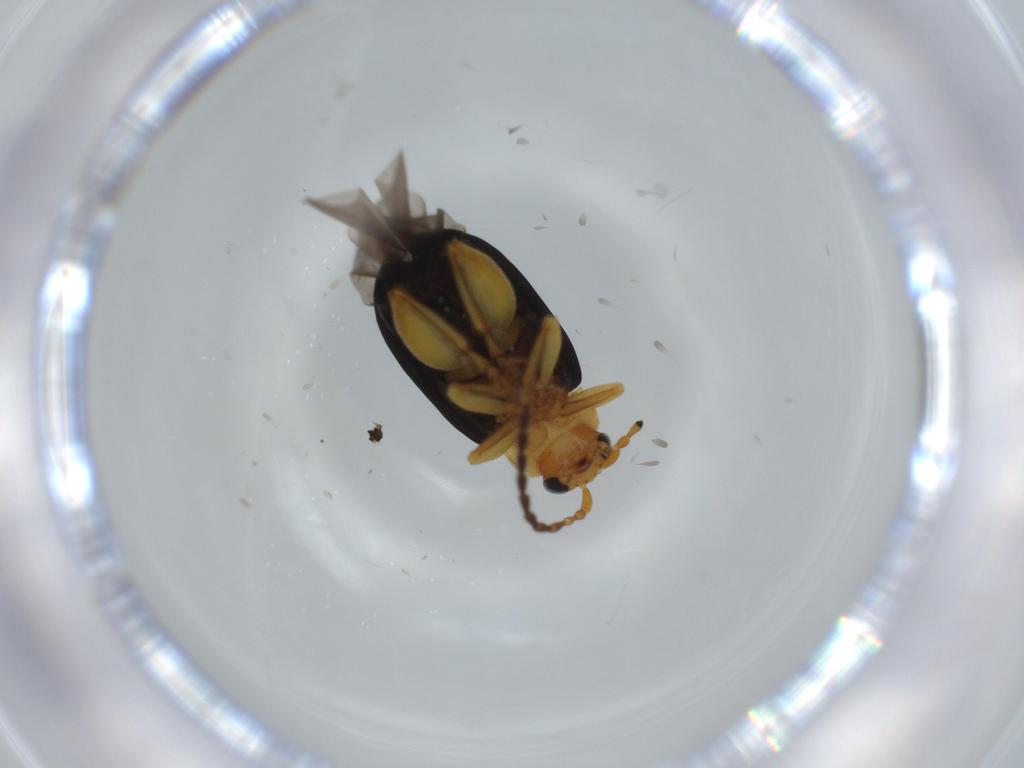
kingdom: Animalia
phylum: Arthropoda
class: Insecta
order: Coleoptera
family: Chrysomelidae
